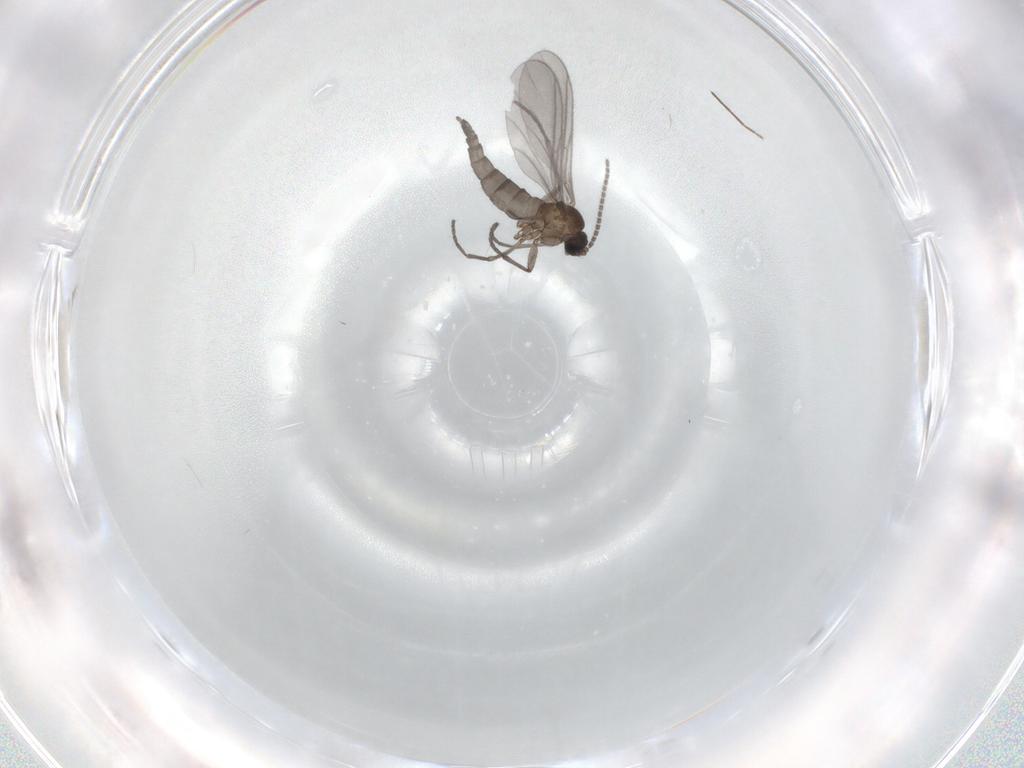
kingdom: Animalia
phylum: Arthropoda
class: Insecta
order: Diptera
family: Sciaridae
